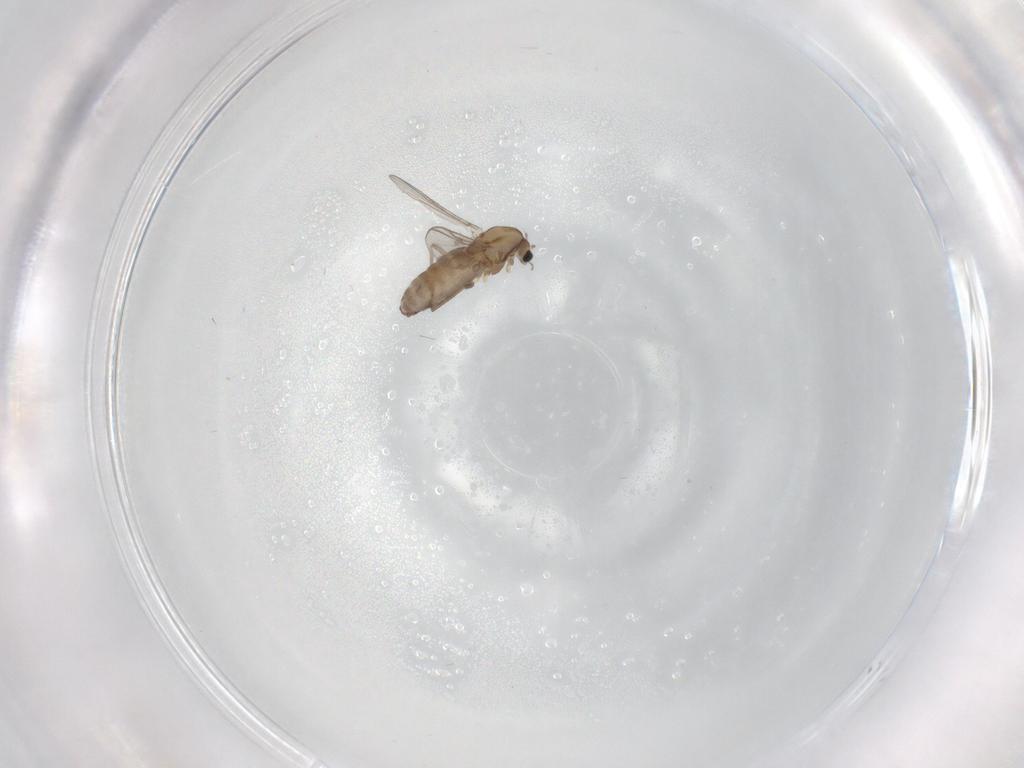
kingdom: Animalia
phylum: Arthropoda
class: Insecta
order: Diptera
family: Chironomidae
